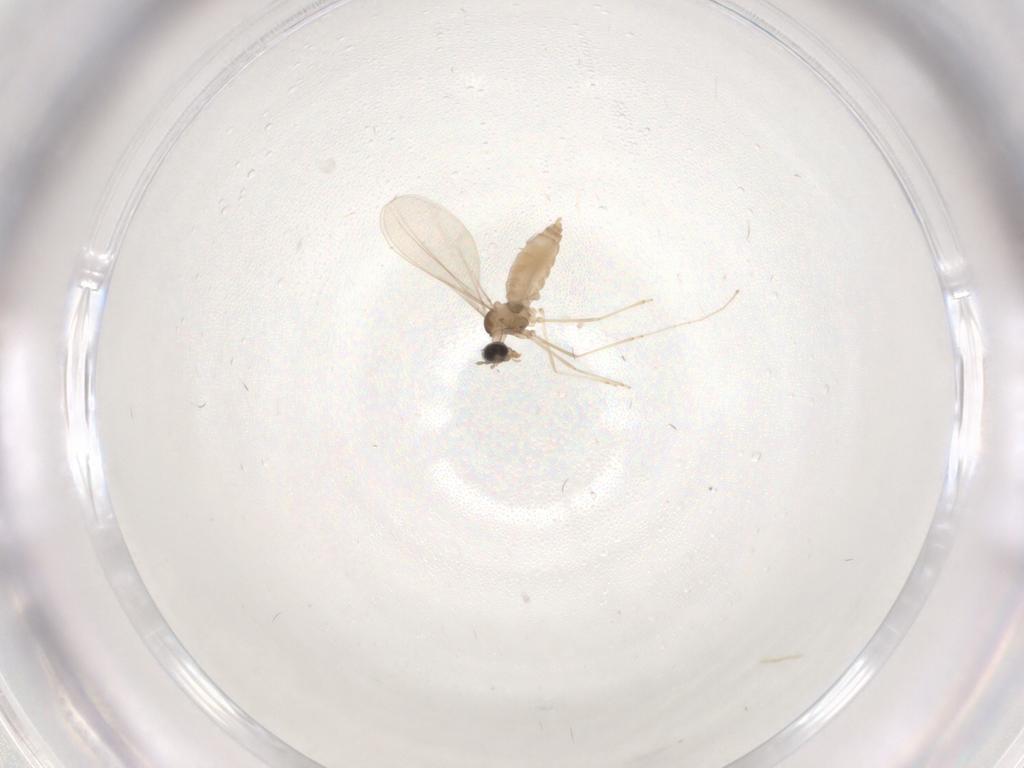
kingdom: Animalia
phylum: Arthropoda
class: Insecta
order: Diptera
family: Cecidomyiidae
